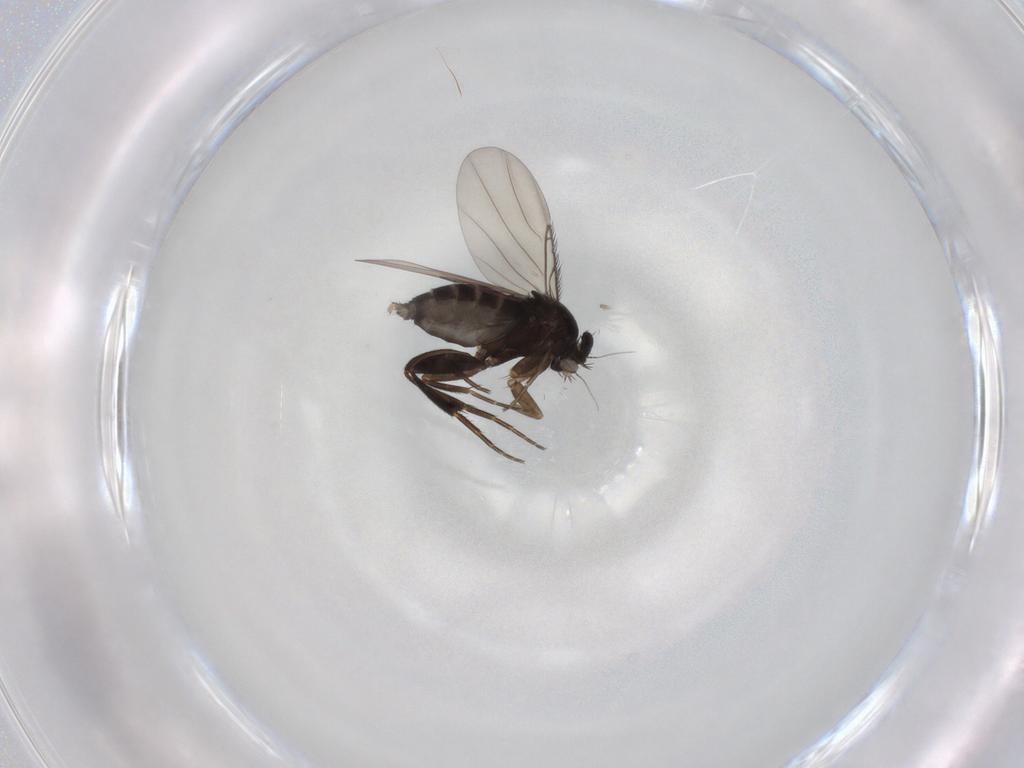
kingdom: Animalia
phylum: Arthropoda
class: Insecta
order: Diptera
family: Phoridae
